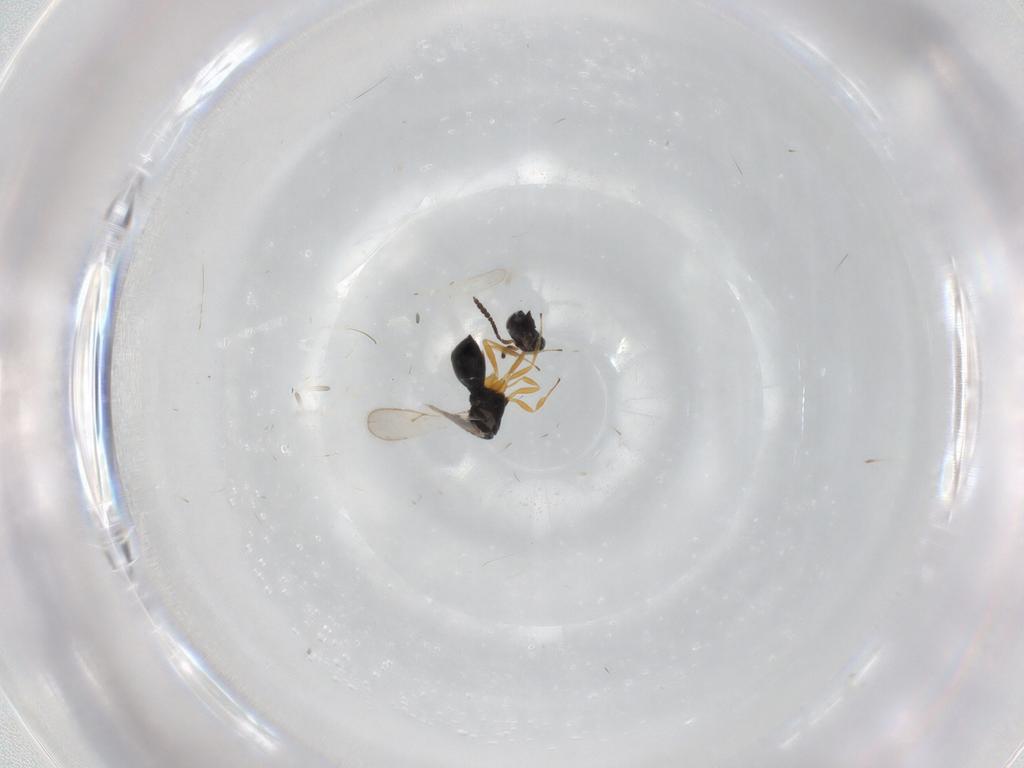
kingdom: Animalia
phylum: Arthropoda
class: Insecta
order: Hymenoptera
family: Scelionidae
